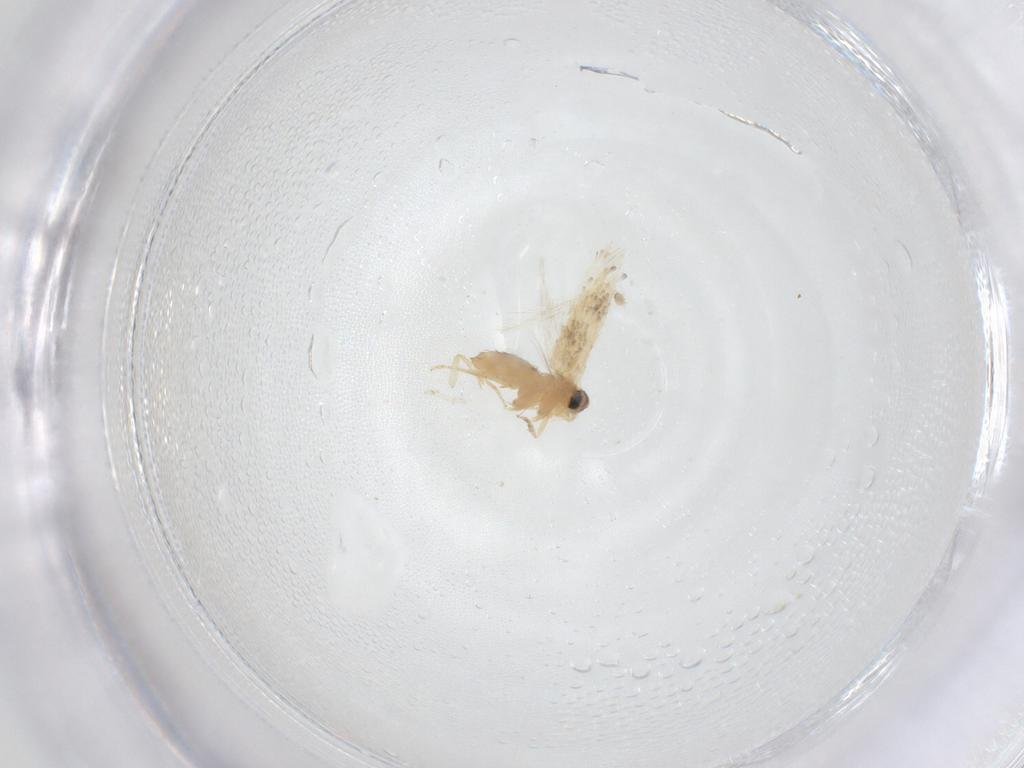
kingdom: Animalia
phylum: Arthropoda
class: Insecta
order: Lepidoptera
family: Nepticulidae
